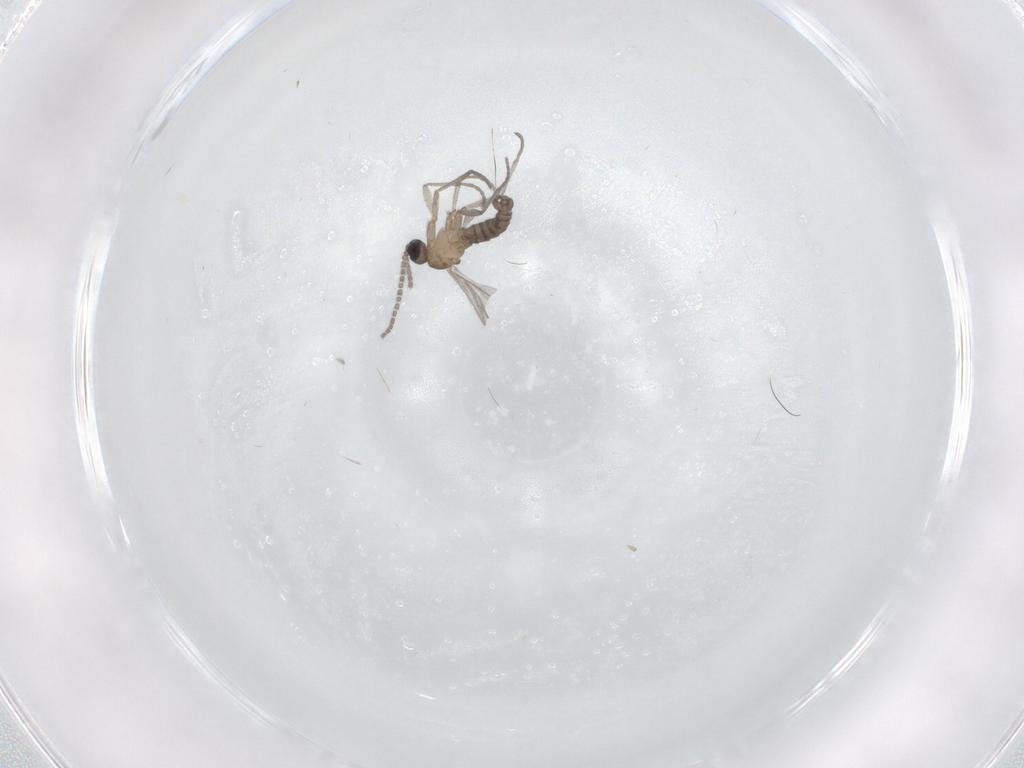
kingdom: Animalia
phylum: Arthropoda
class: Insecta
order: Diptera
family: Sciaridae
